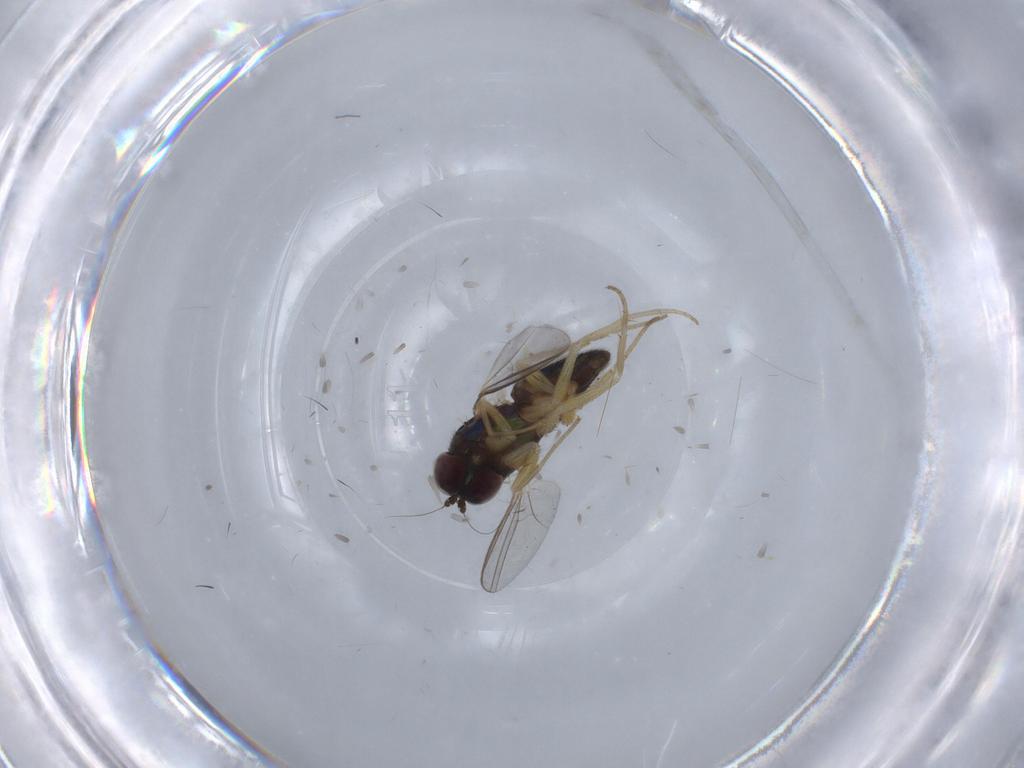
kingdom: Animalia
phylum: Arthropoda
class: Insecta
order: Diptera
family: Dolichopodidae
